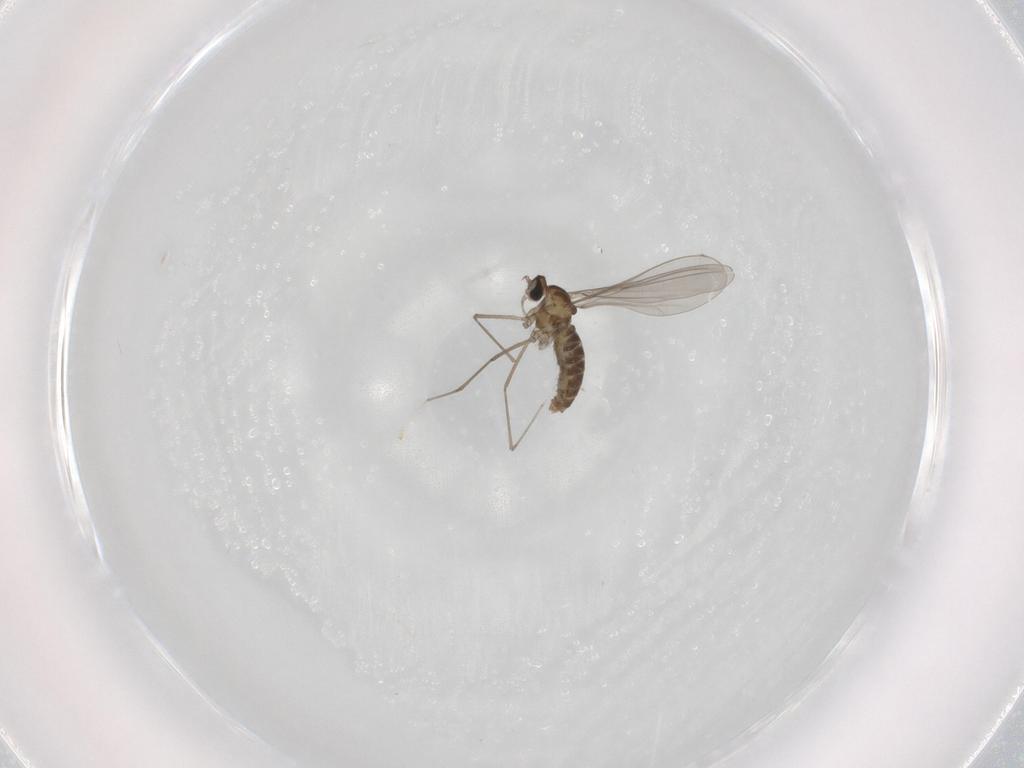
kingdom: Animalia
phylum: Arthropoda
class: Insecta
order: Diptera
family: Cecidomyiidae
